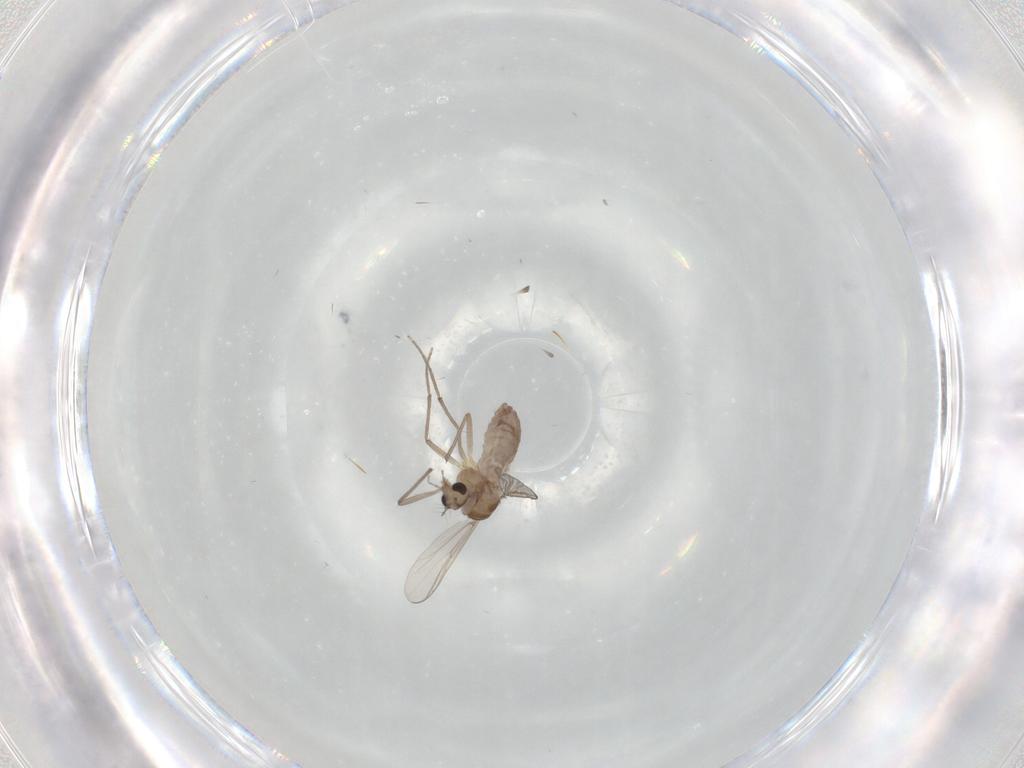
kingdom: Animalia
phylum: Arthropoda
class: Insecta
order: Diptera
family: Chironomidae
